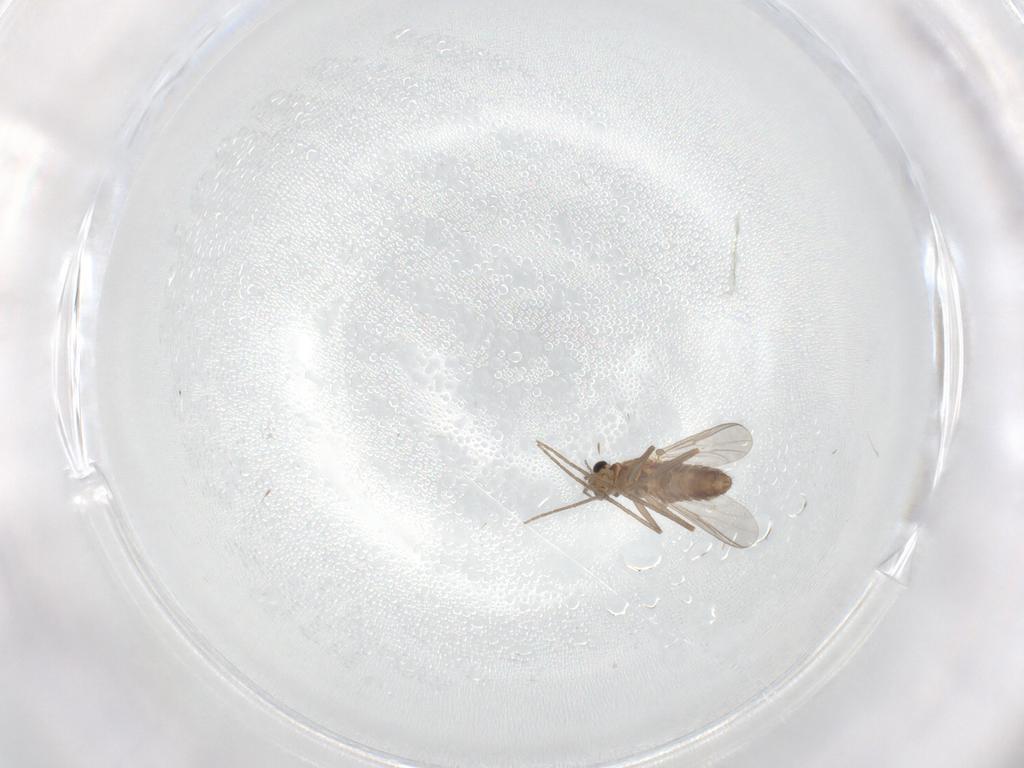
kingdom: Animalia
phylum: Arthropoda
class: Insecta
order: Diptera
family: Chironomidae
